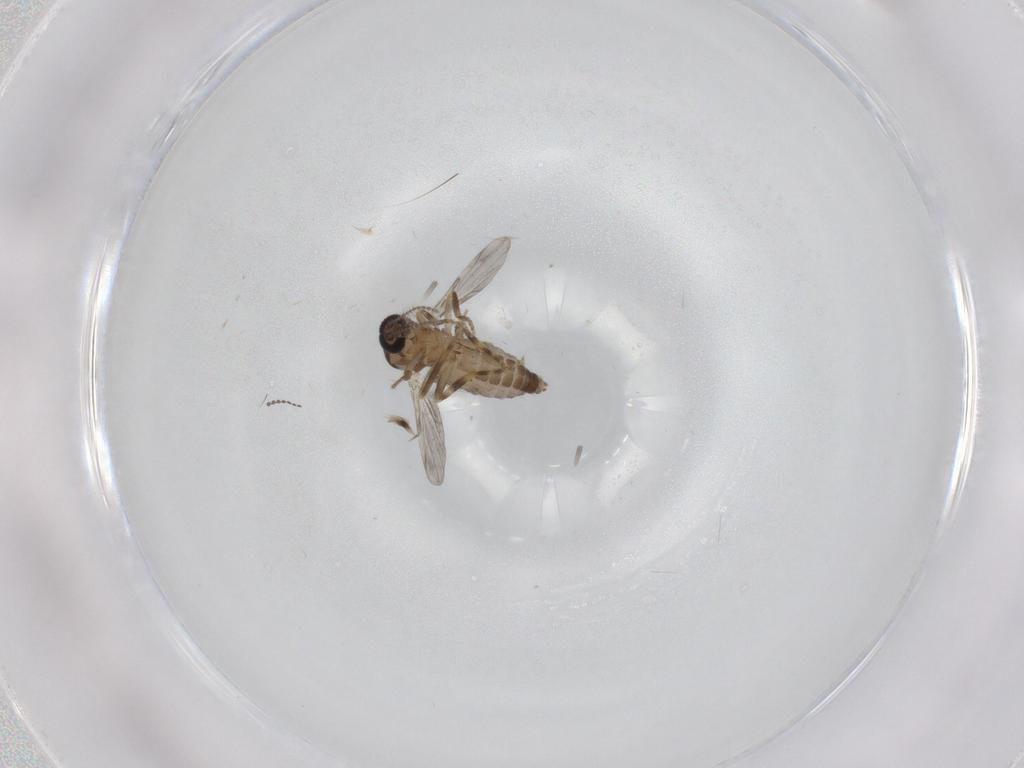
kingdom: Animalia
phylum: Arthropoda
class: Insecta
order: Diptera
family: Ceratopogonidae
